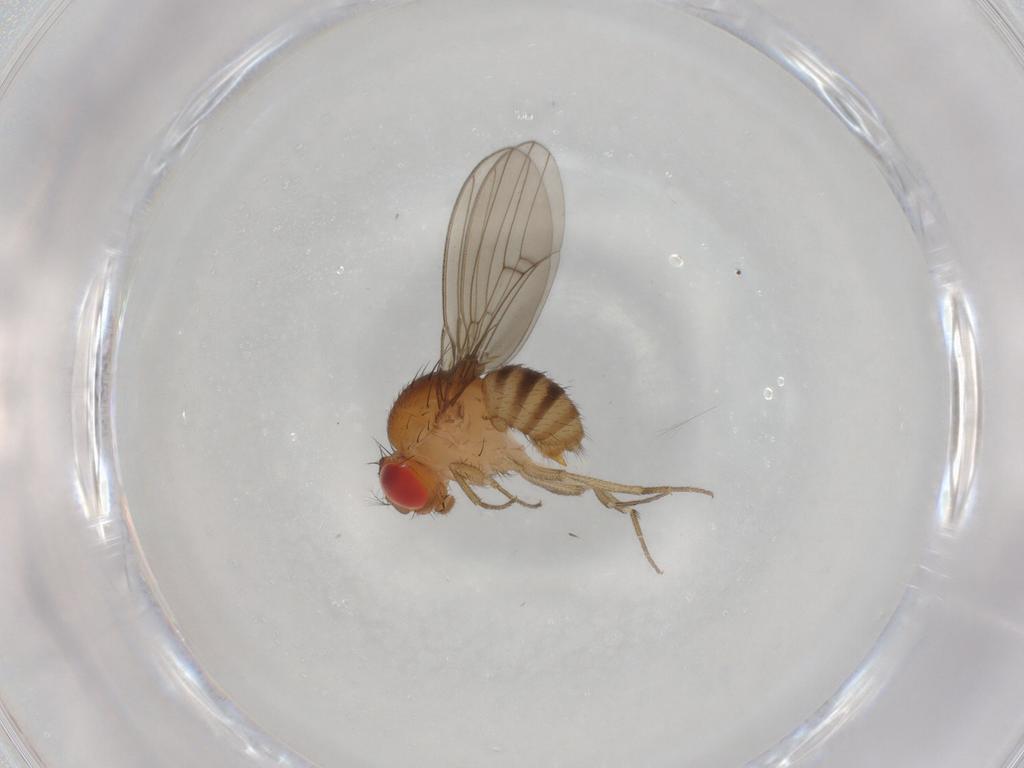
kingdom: Animalia
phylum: Arthropoda
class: Insecta
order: Diptera
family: Drosophilidae
